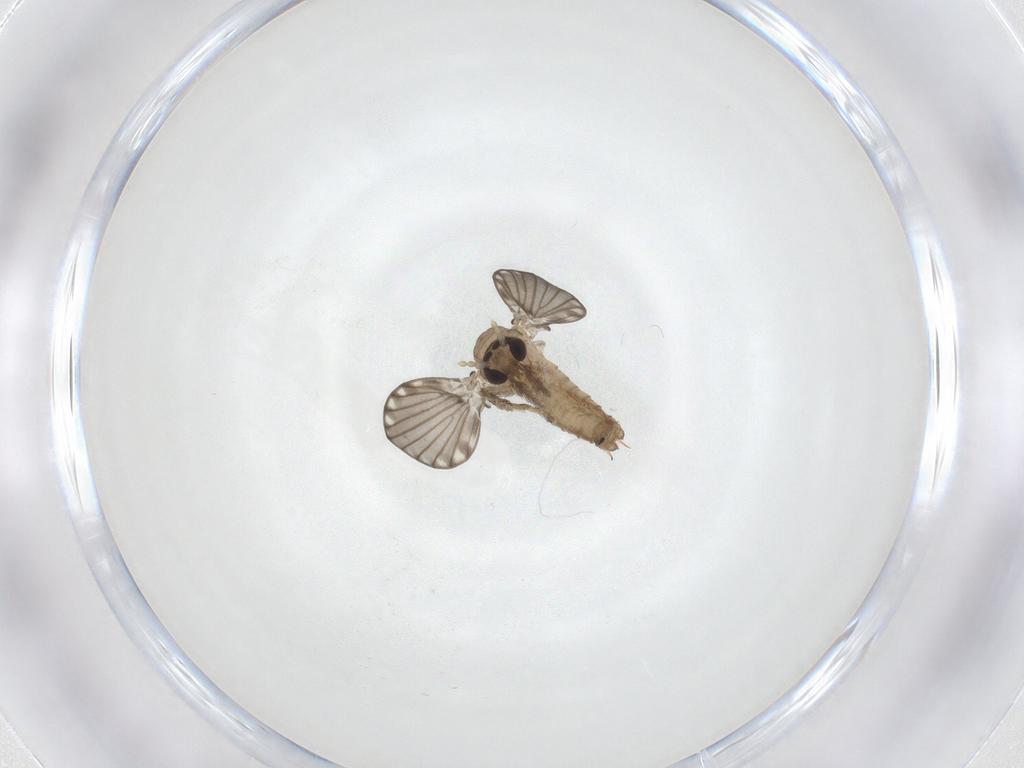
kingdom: Animalia
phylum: Arthropoda
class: Insecta
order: Diptera
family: Psychodidae
